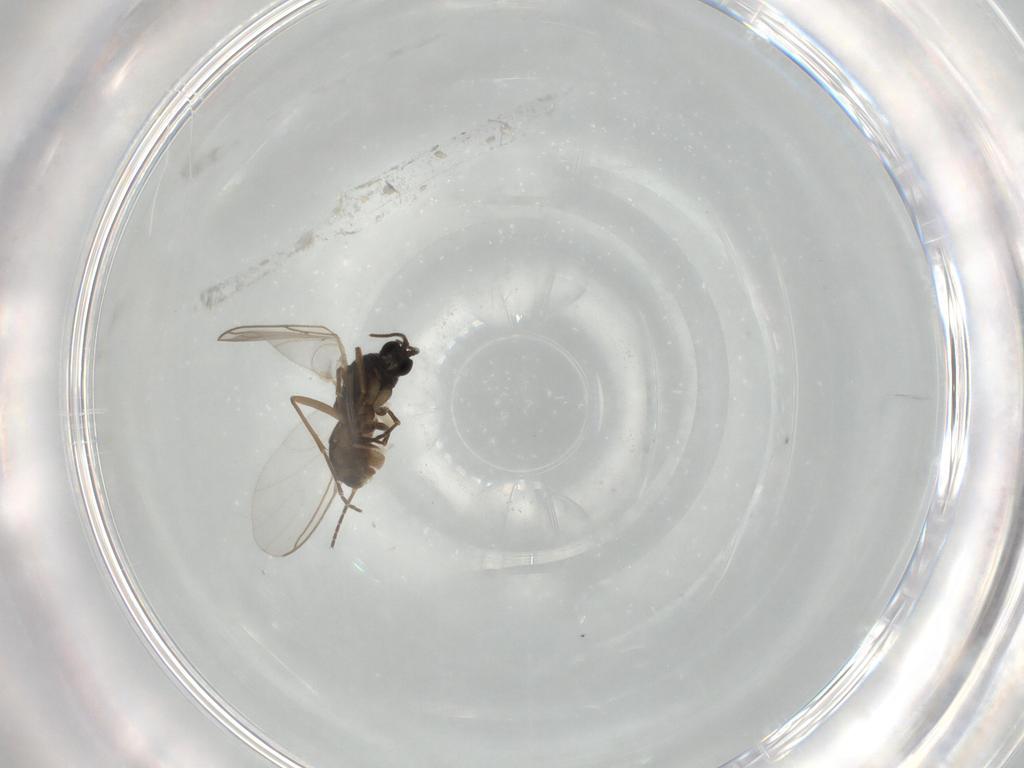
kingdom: Animalia
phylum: Arthropoda
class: Insecta
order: Diptera
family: Sciaridae
